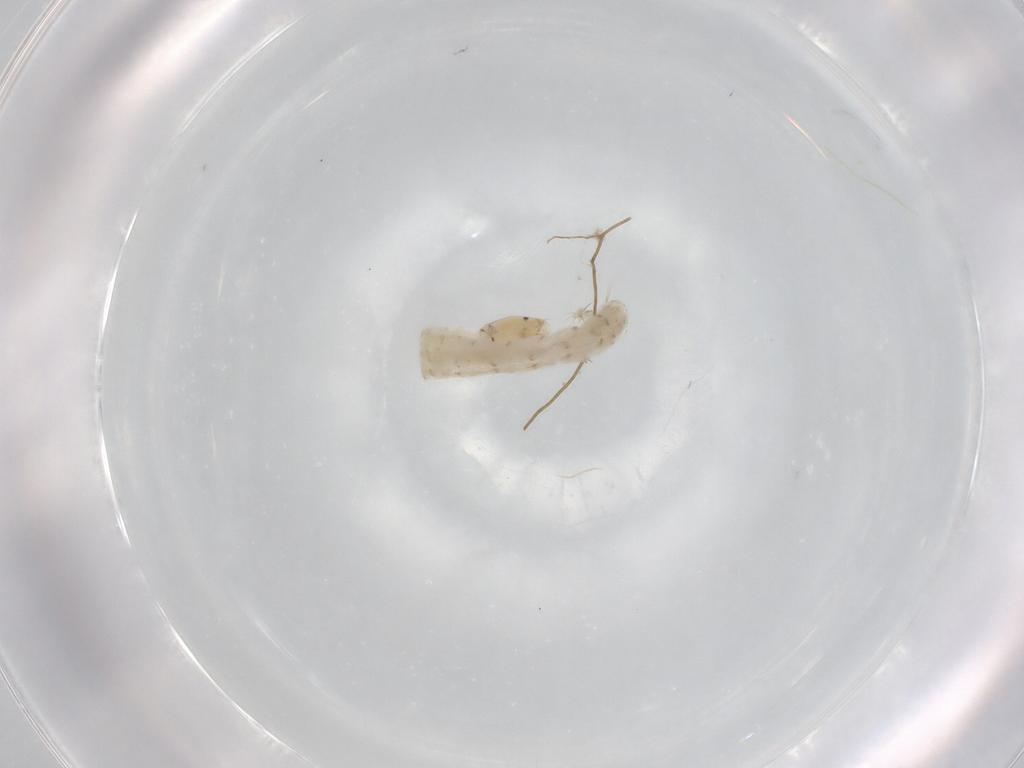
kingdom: Animalia
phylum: Arthropoda
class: Insecta
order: Diptera
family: Chironomidae
